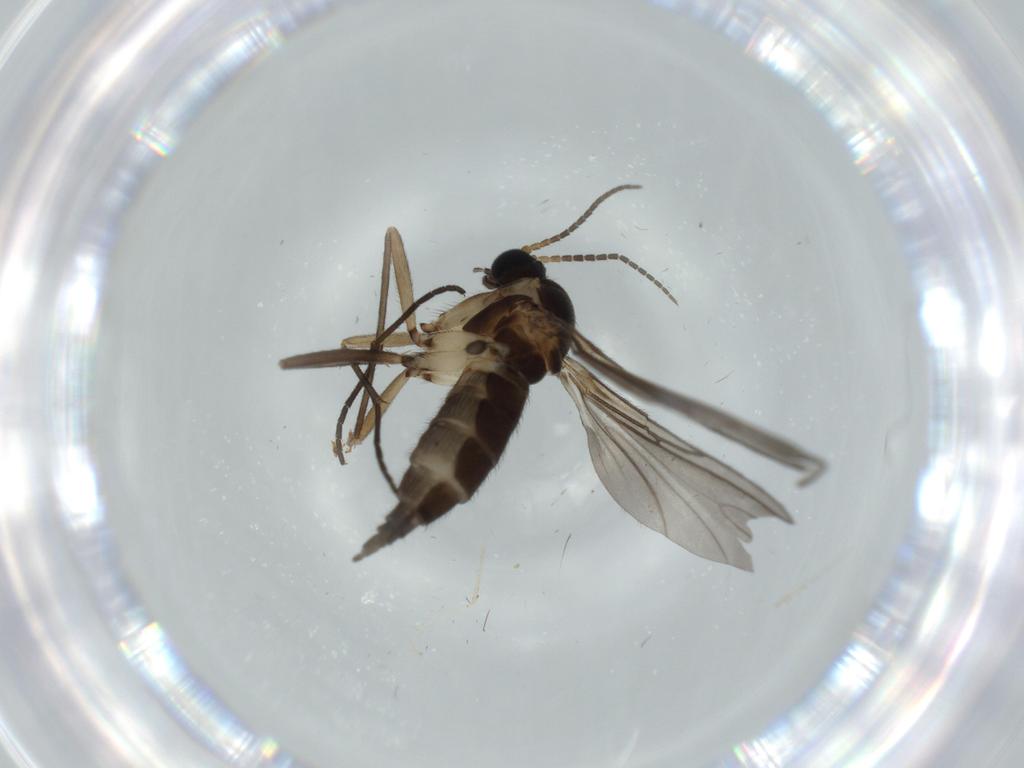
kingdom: Animalia
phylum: Arthropoda
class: Insecta
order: Diptera
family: Sciaridae
